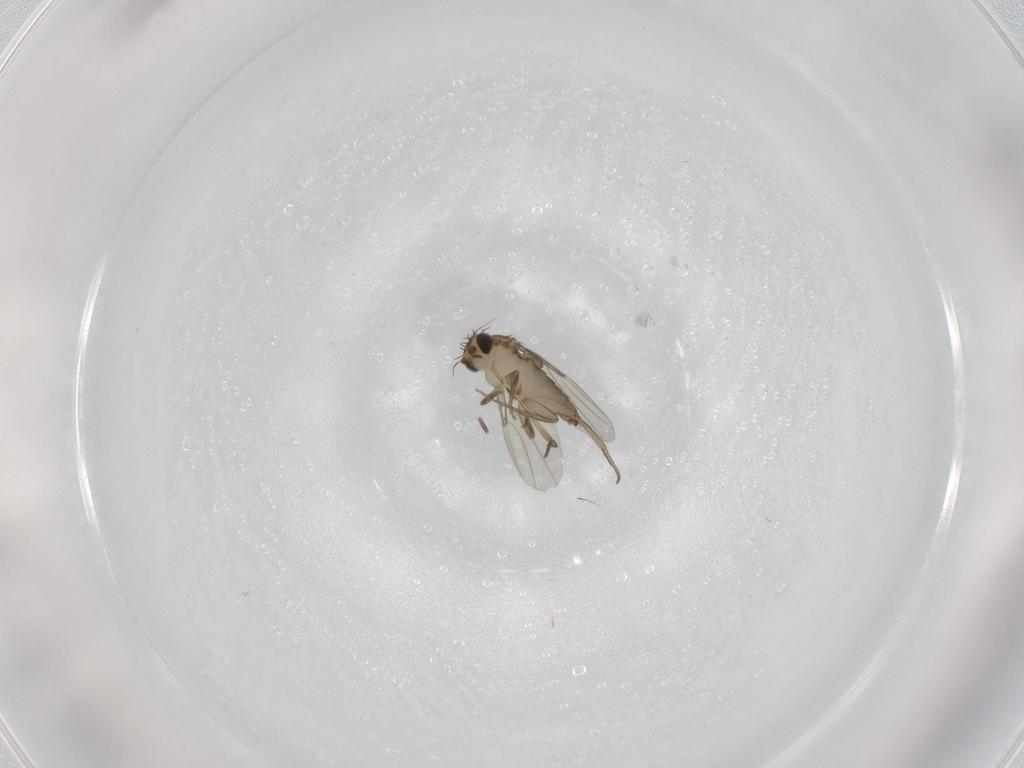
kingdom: Animalia
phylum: Arthropoda
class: Insecta
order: Diptera
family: Phoridae
